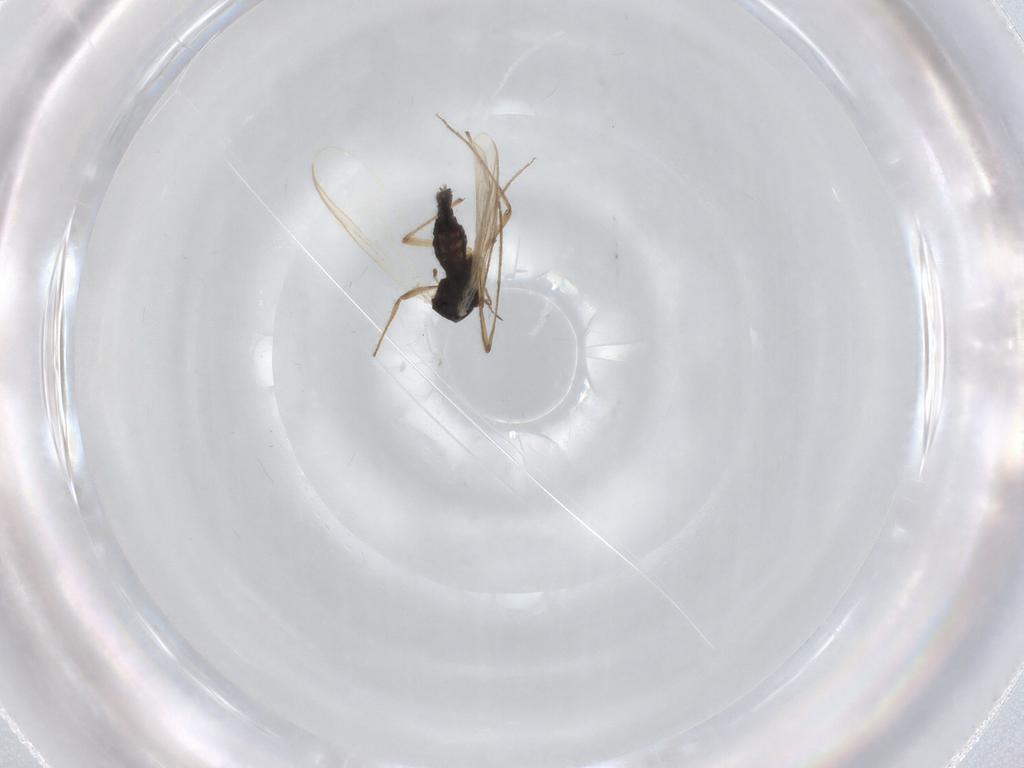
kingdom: Animalia
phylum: Arthropoda
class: Insecta
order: Diptera
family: Chironomidae
